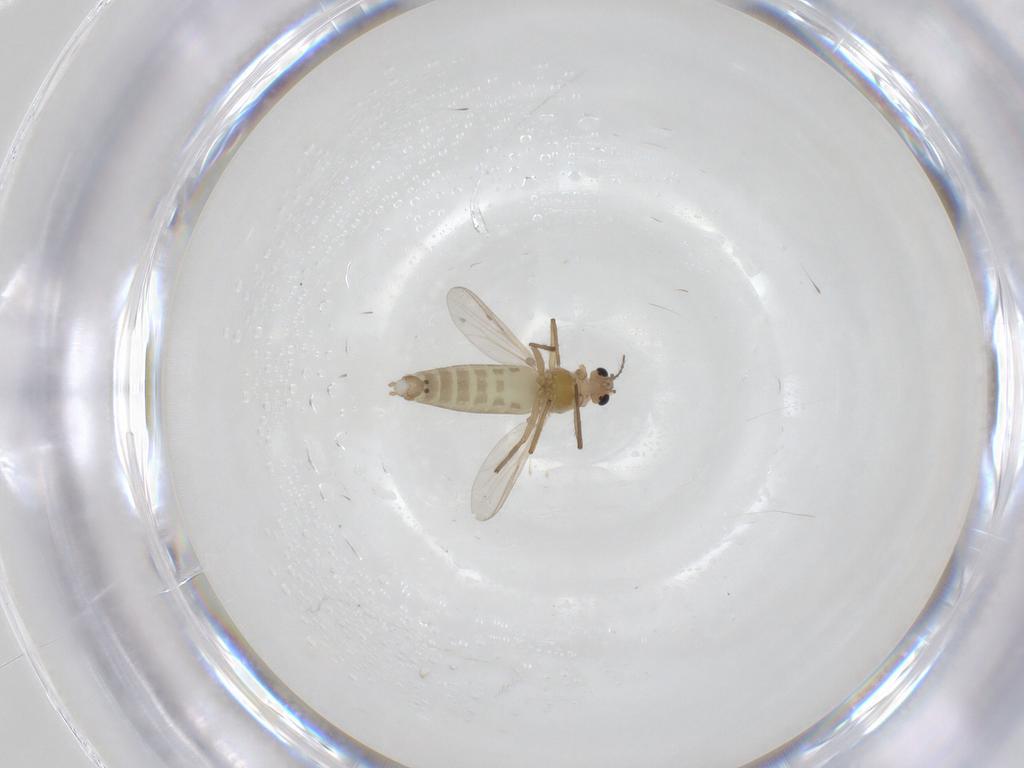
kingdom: Animalia
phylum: Arthropoda
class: Insecta
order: Diptera
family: Chironomidae
